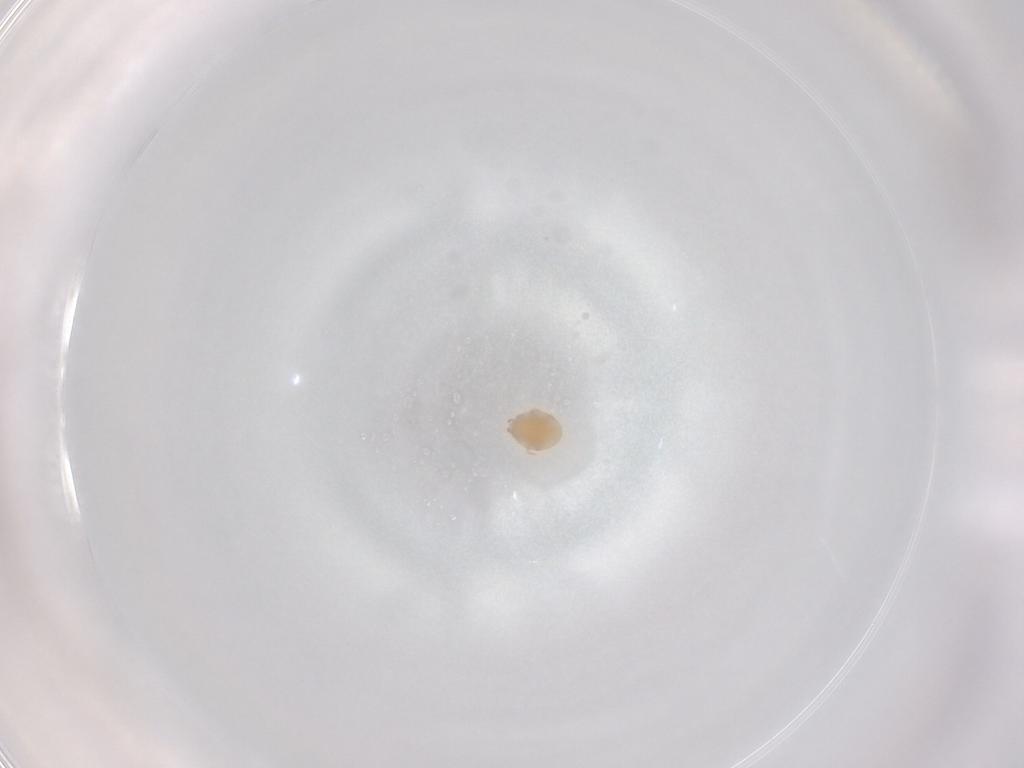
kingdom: Animalia
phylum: Arthropoda
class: Arachnida
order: Mesostigmata
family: Trematuridae
